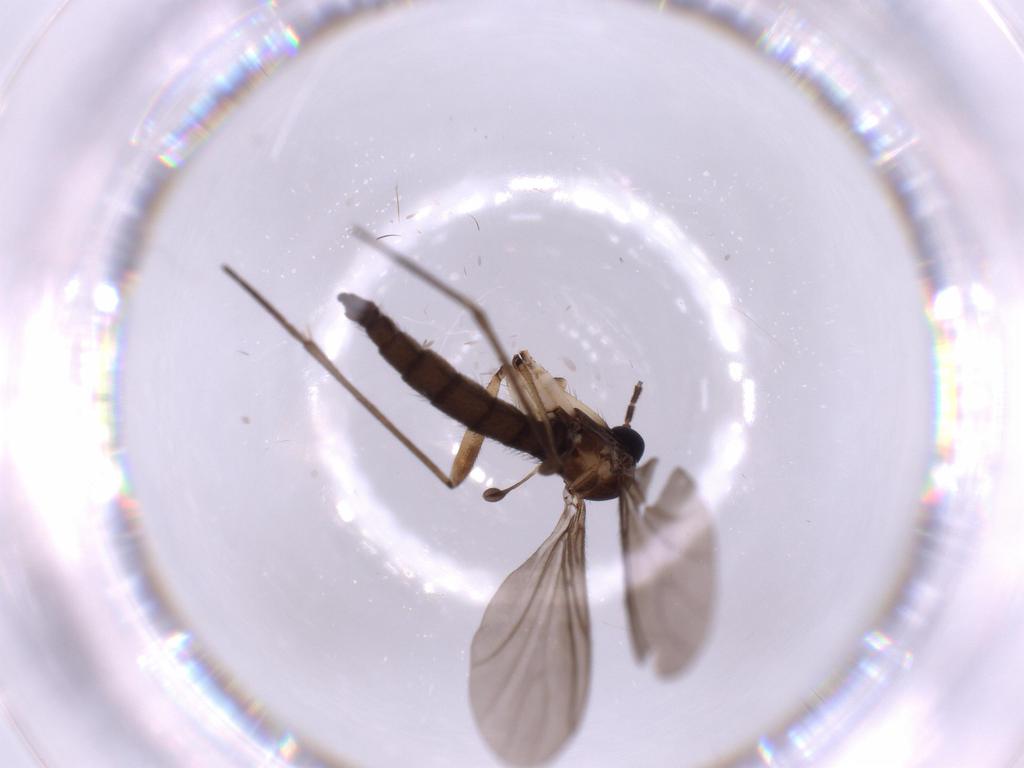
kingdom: Animalia
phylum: Arthropoda
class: Insecta
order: Diptera
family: Sciaridae
